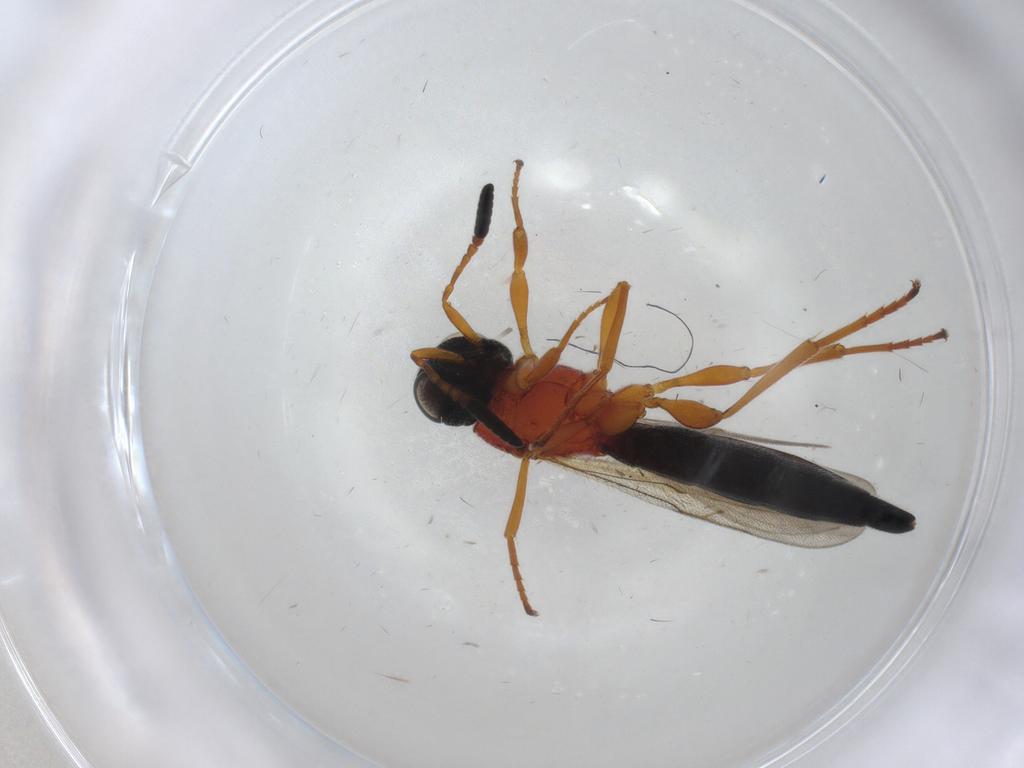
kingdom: Animalia
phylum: Arthropoda
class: Insecta
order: Hymenoptera
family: Scelionidae
